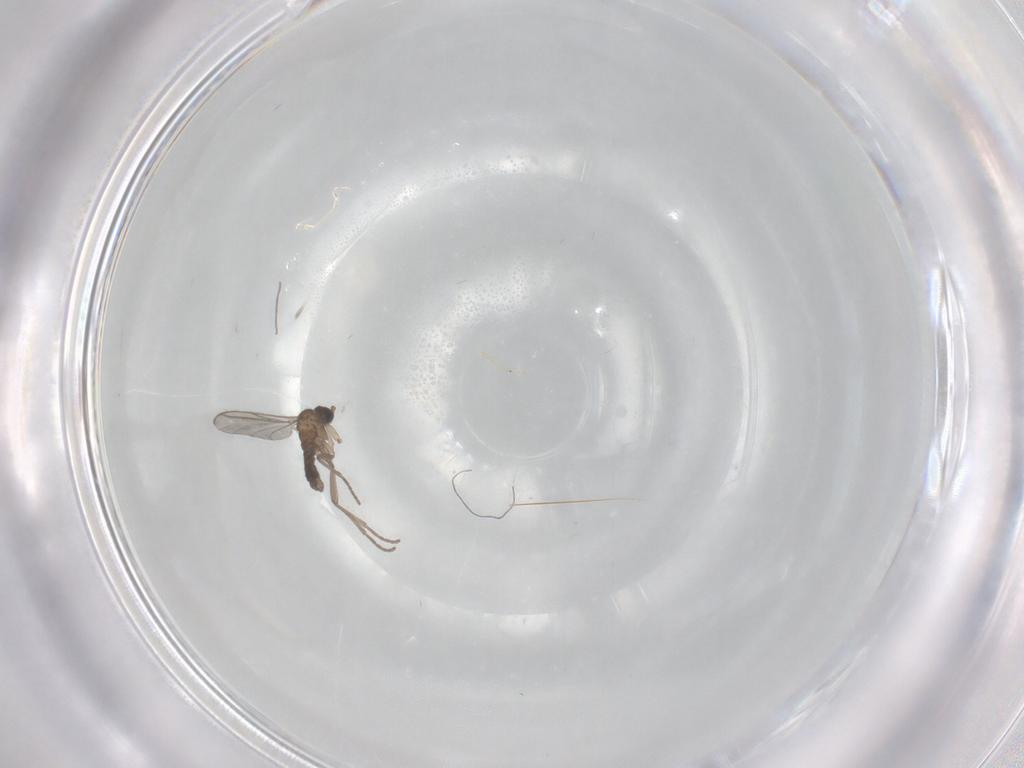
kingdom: Animalia
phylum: Arthropoda
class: Insecta
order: Diptera
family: Sciaridae
